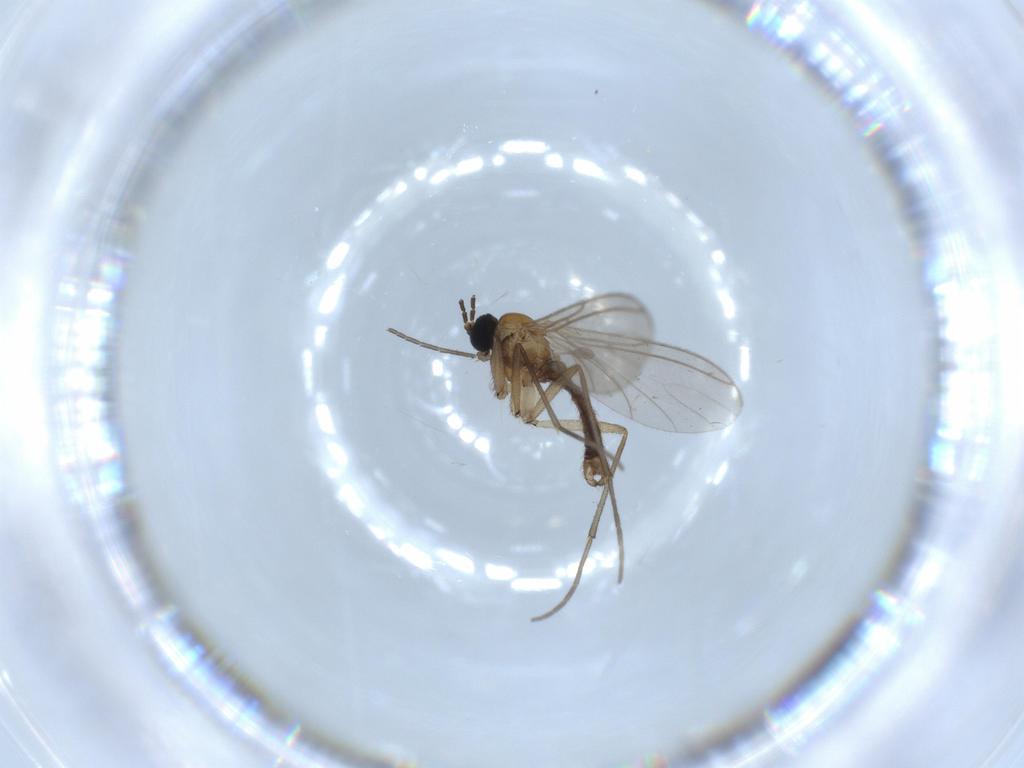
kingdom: Animalia
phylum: Arthropoda
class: Insecta
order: Diptera
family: Sciaridae
